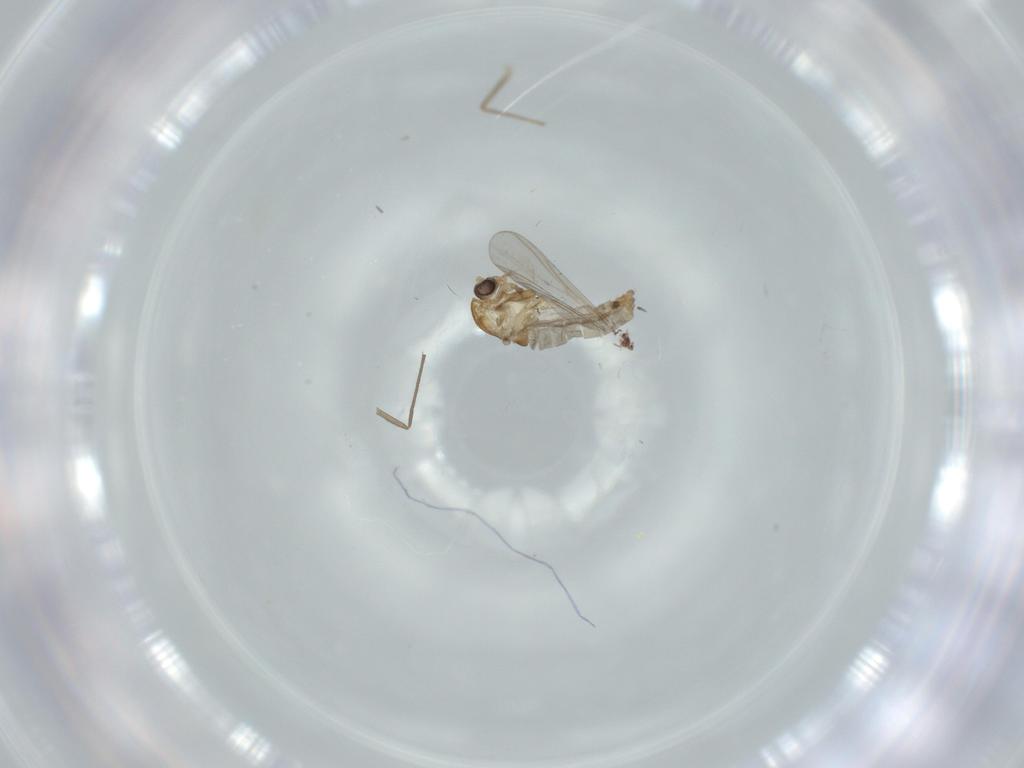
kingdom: Animalia
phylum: Arthropoda
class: Insecta
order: Diptera
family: Chironomidae
